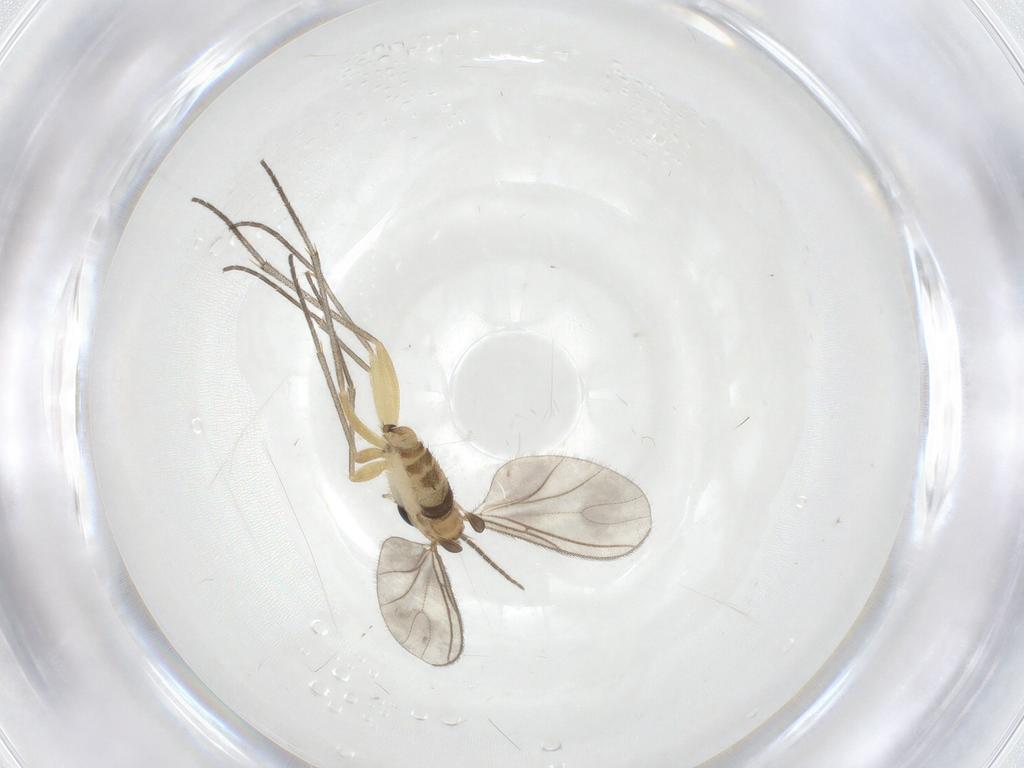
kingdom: Animalia
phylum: Arthropoda
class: Insecta
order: Diptera
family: Sciaridae
